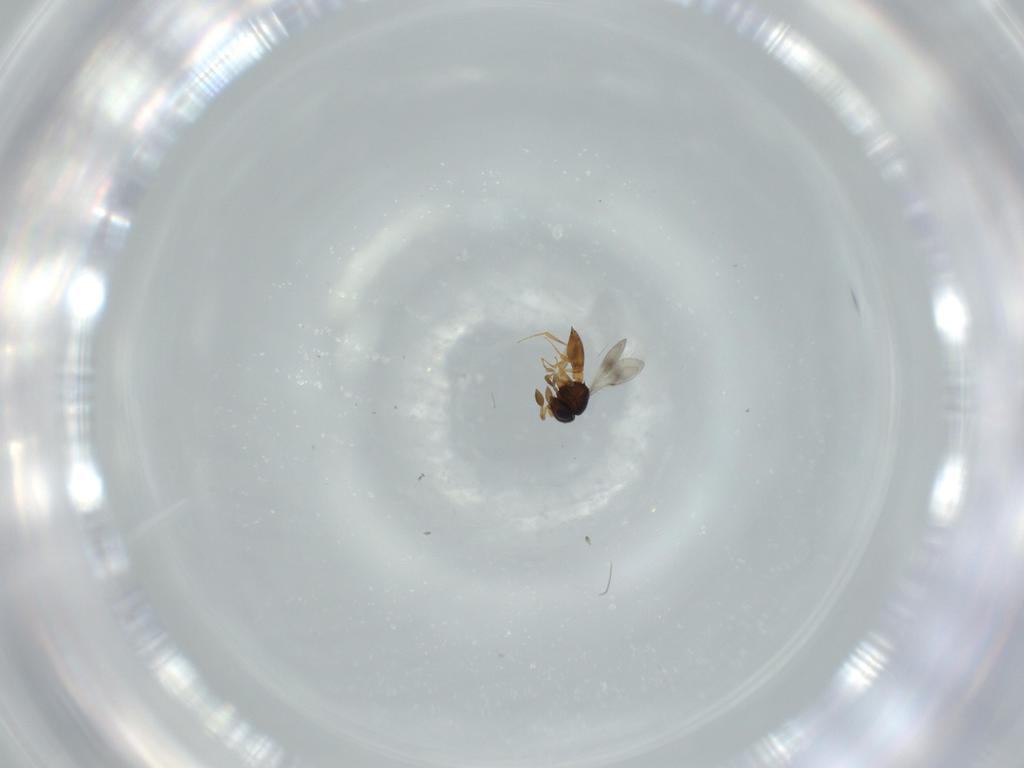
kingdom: Animalia
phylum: Arthropoda
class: Insecta
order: Hymenoptera
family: Scelionidae
